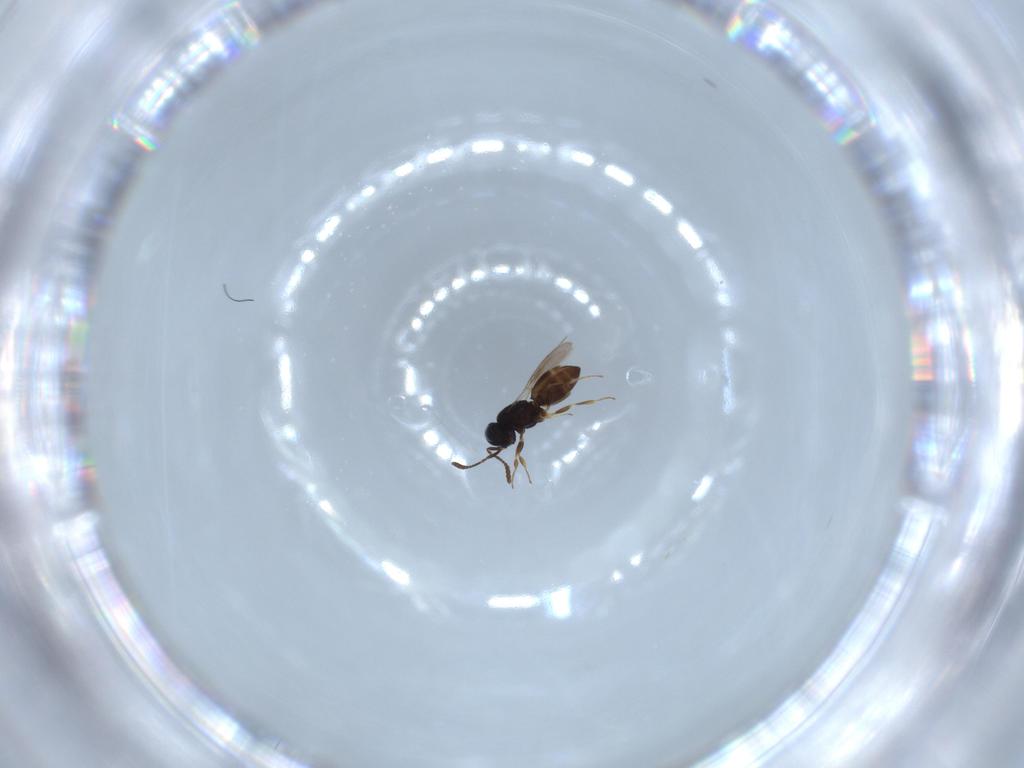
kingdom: Animalia
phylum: Arthropoda
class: Insecta
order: Hymenoptera
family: Scelionidae
